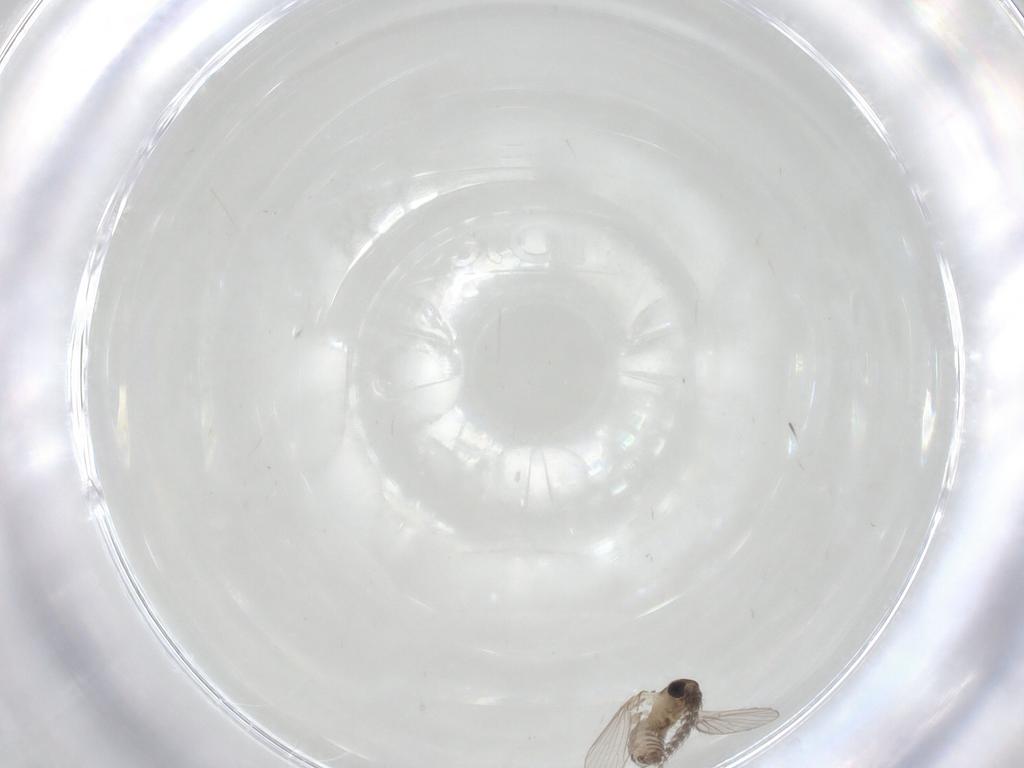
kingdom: Animalia
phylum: Arthropoda
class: Insecta
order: Diptera
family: Psychodidae
